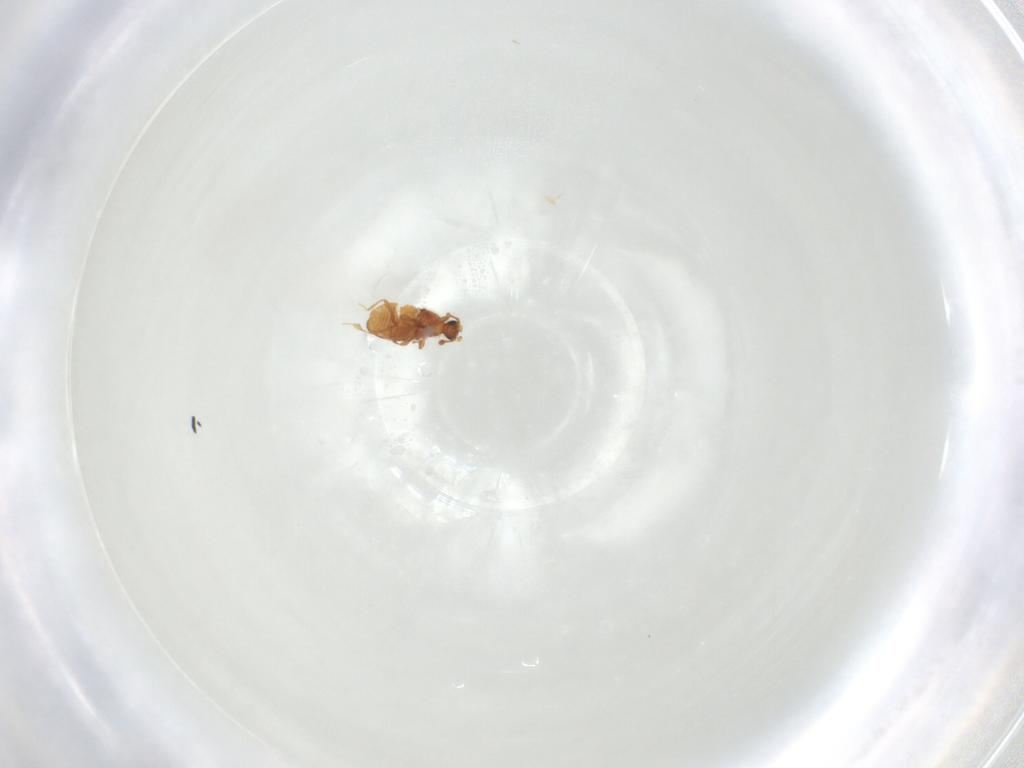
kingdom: Animalia
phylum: Arthropoda
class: Insecta
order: Coleoptera
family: Staphylinidae
